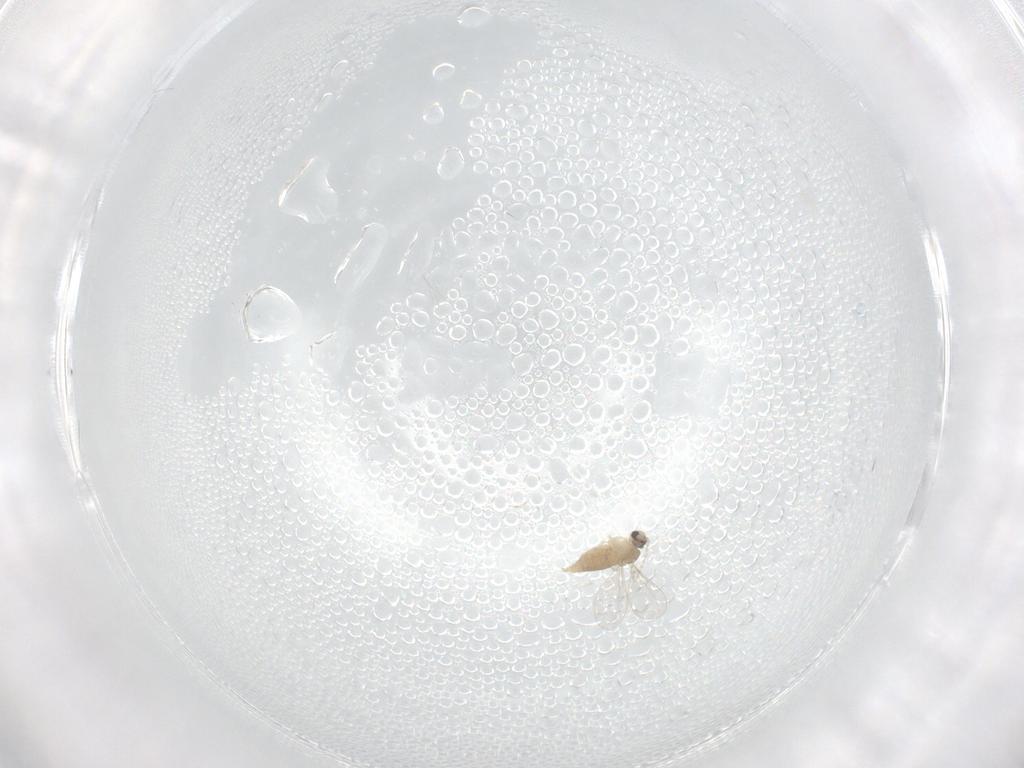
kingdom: Animalia
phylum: Arthropoda
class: Insecta
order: Diptera
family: Cecidomyiidae
